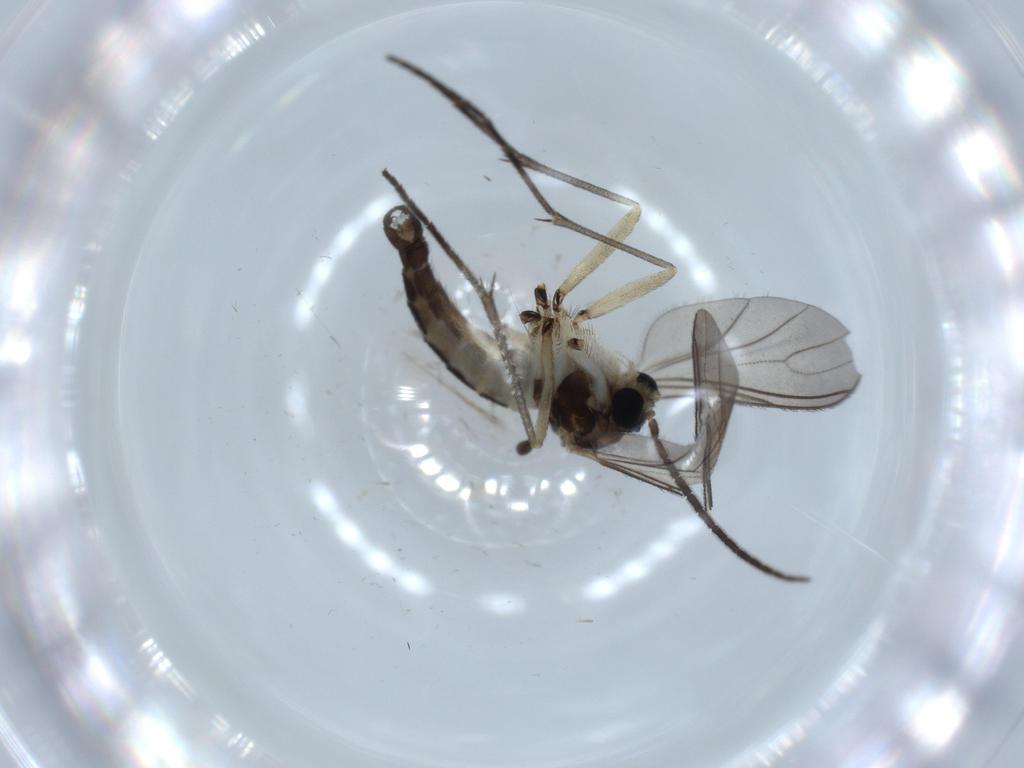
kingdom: Animalia
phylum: Arthropoda
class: Insecta
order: Diptera
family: Sciaridae
